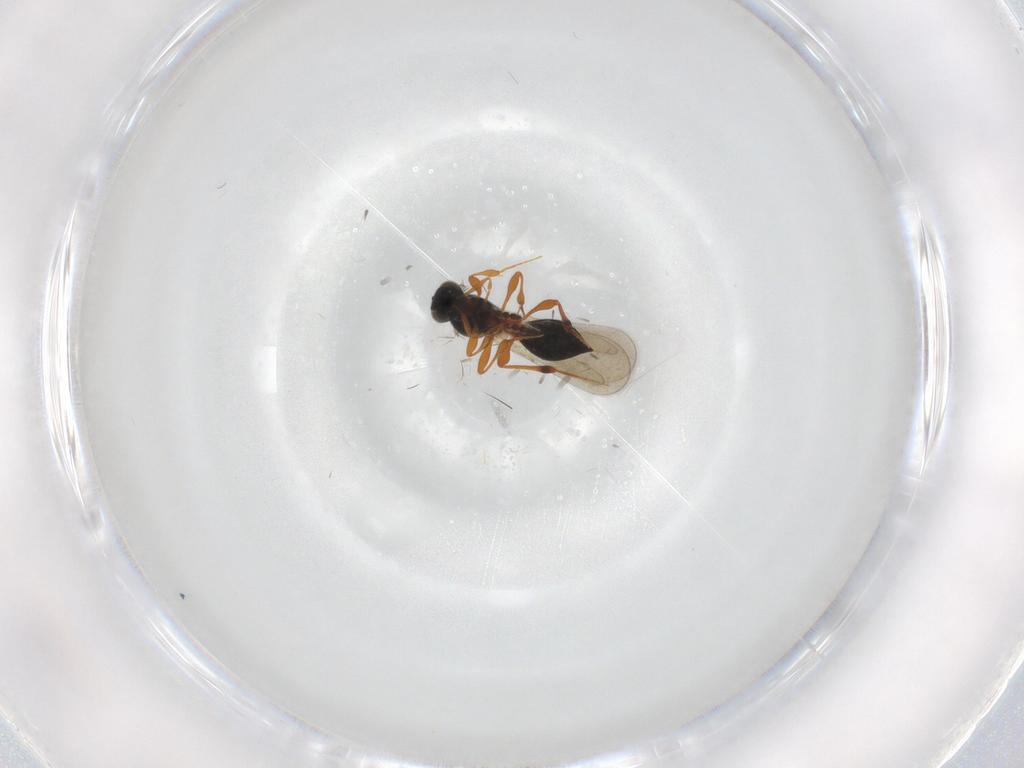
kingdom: Animalia
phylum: Arthropoda
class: Insecta
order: Hymenoptera
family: Platygastridae
